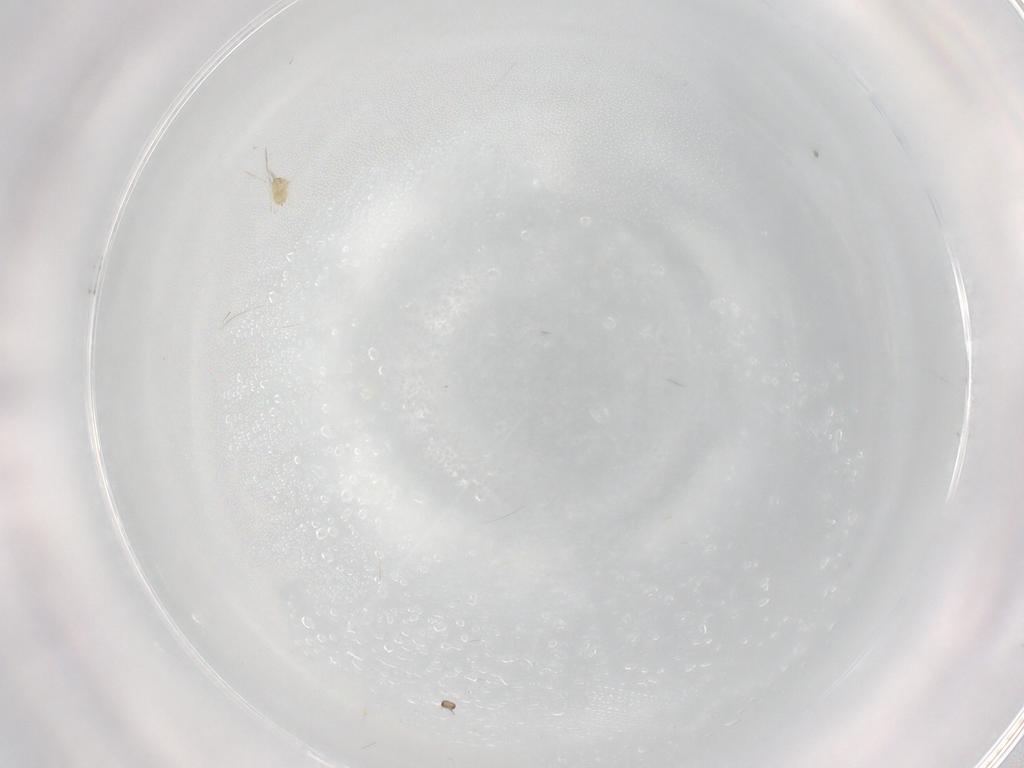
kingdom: Animalia
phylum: Arthropoda
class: Insecta
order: Hymenoptera
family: Mymaridae
